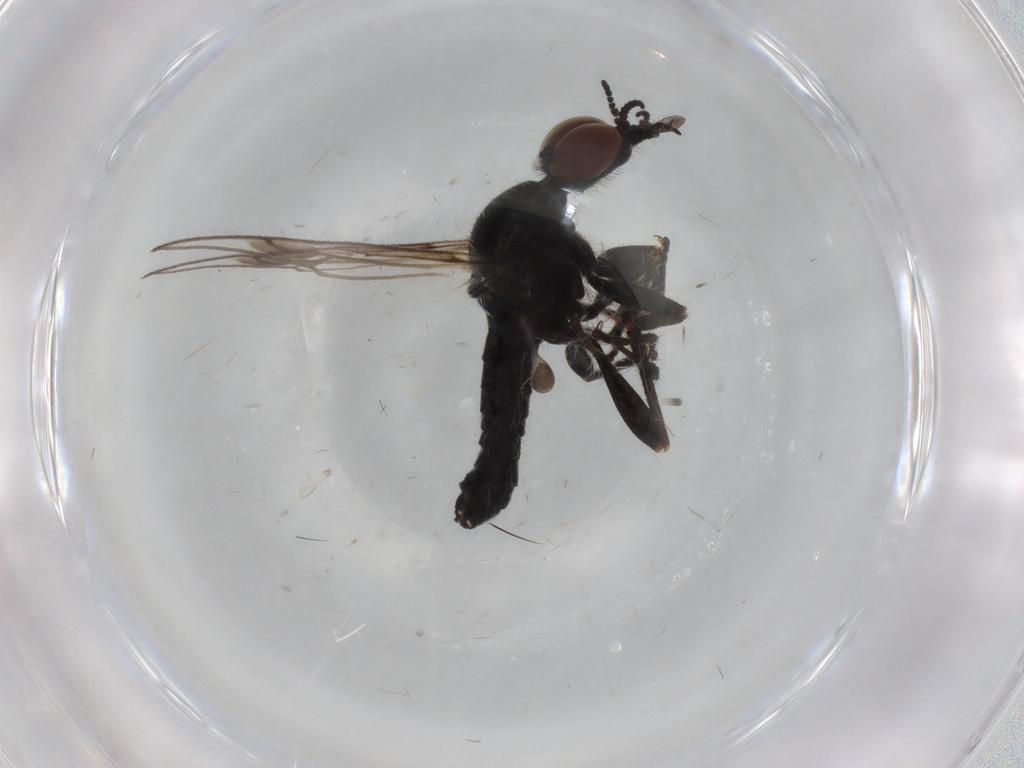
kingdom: Animalia
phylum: Arthropoda
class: Insecta
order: Diptera
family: Bibionidae
